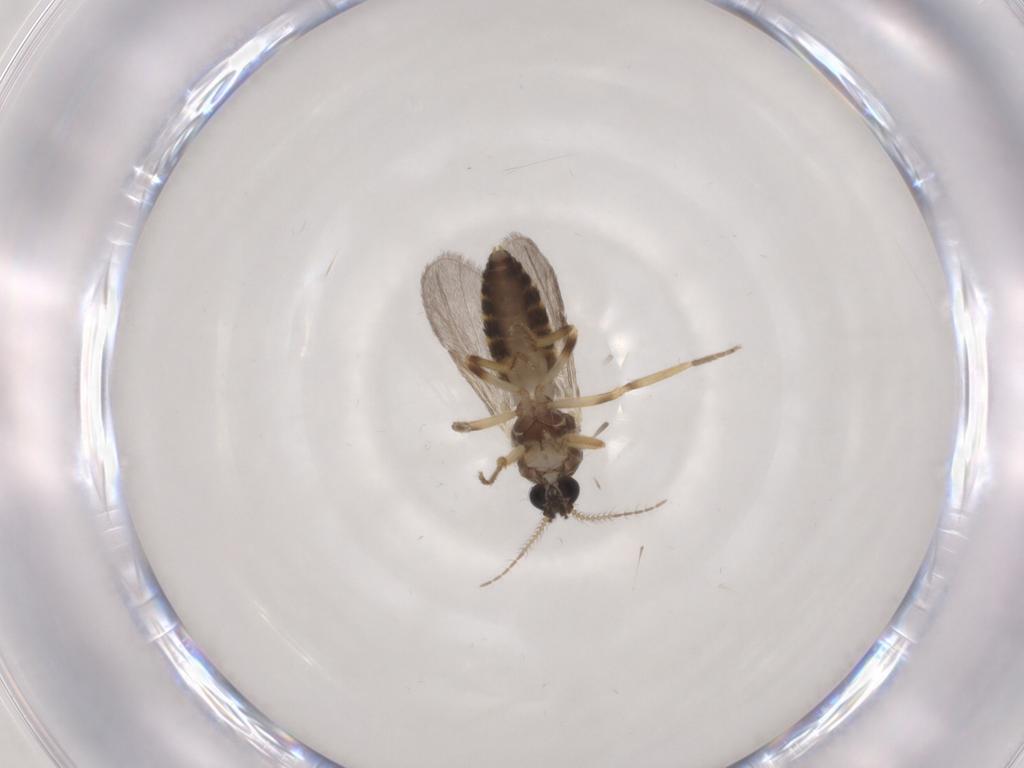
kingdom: Animalia
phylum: Arthropoda
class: Insecta
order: Diptera
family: Ceratopogonidae
